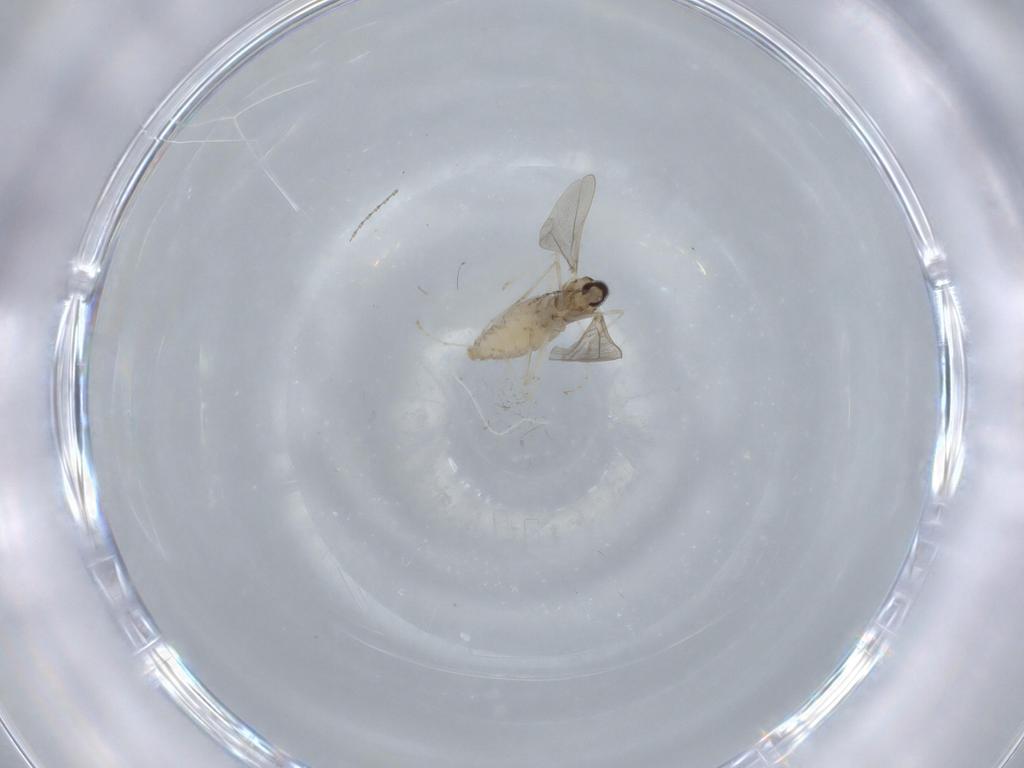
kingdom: Animalia
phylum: Arthropoda
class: Insecta
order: Diptera
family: Cecidomyiidae
